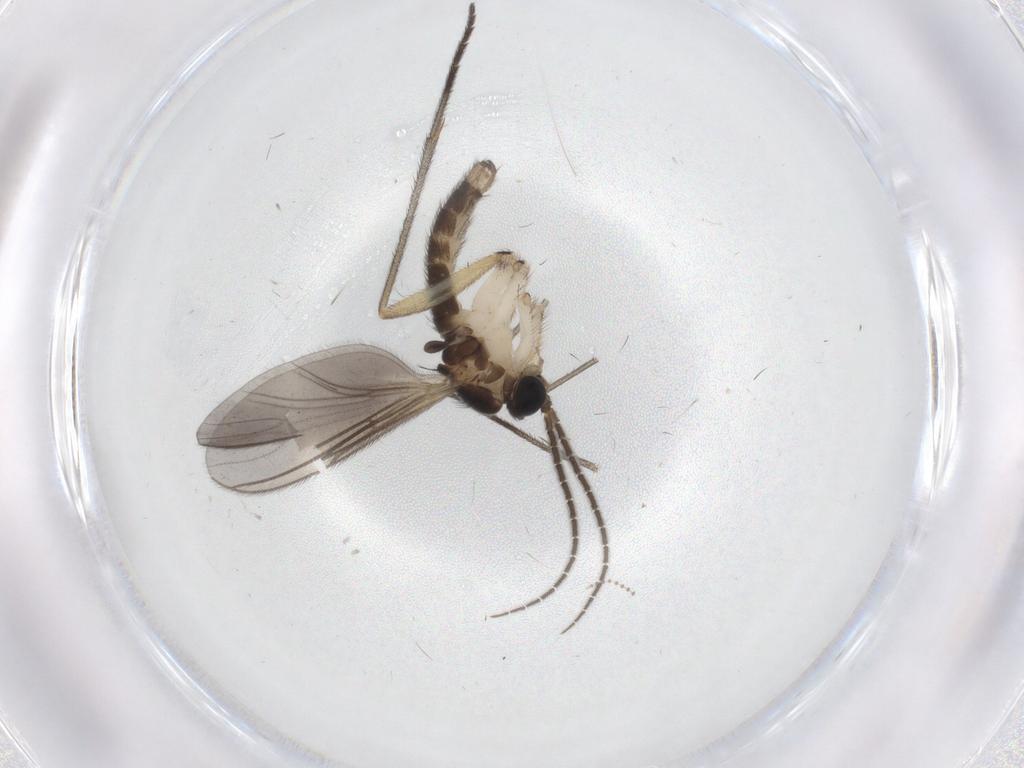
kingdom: Animalia
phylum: Arthropoda
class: Insecta
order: Diptera
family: Sciaridae
